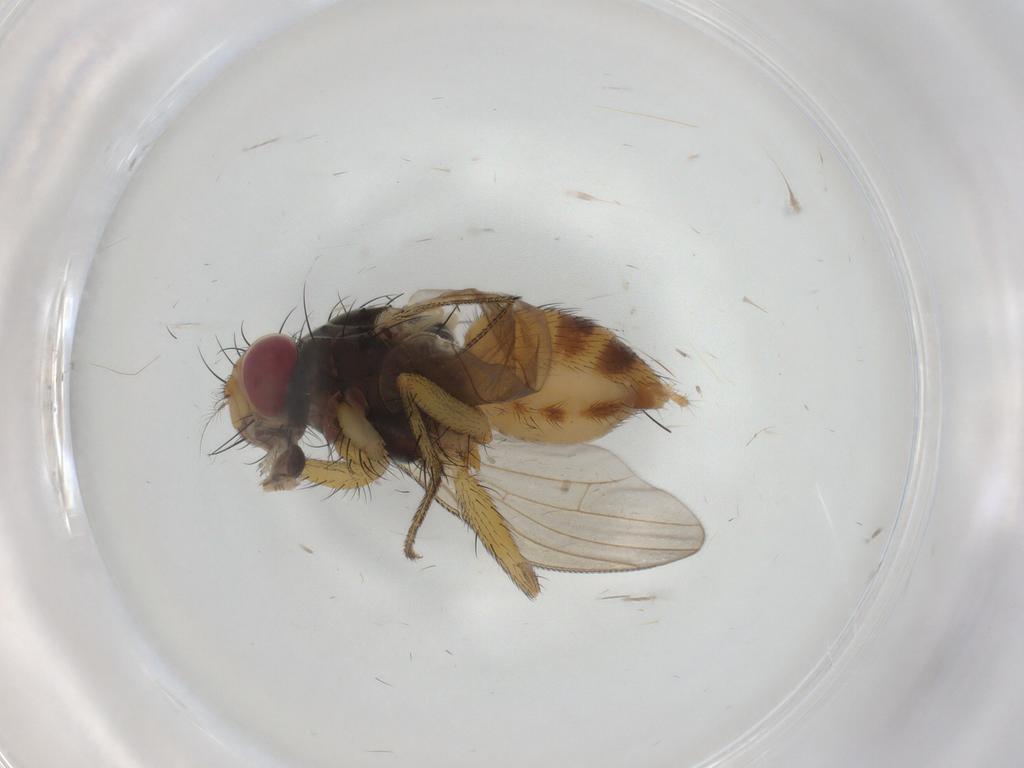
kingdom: Animalia
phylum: Arthropoda
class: Insecta
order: Diptera
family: Muscidae
